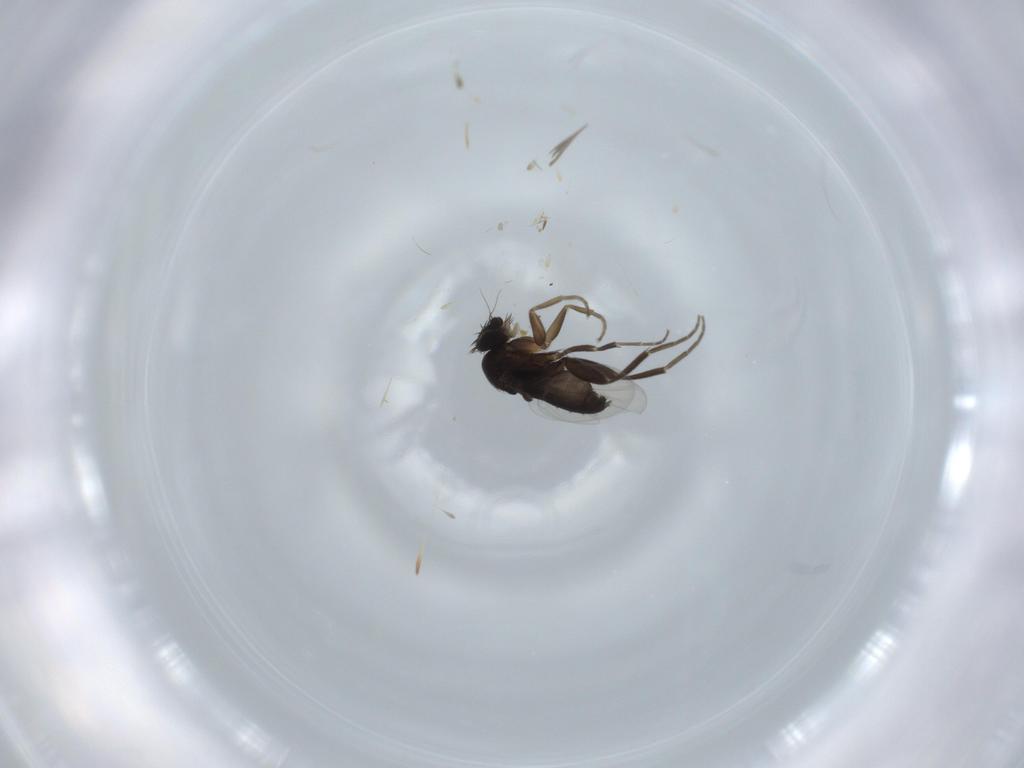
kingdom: Animalia
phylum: Arthropoda
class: Insecta
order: Diptera
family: Phoridae
